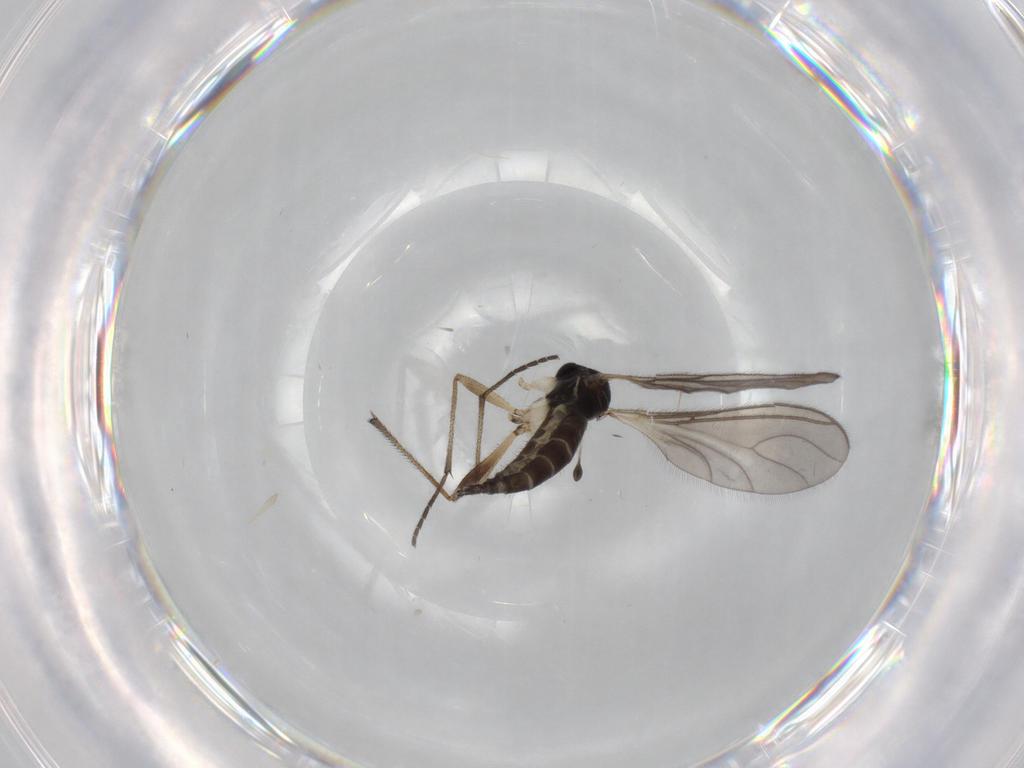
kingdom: Animalia
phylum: Arthropoda
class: Insecta
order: Diptera
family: Sciaridae
